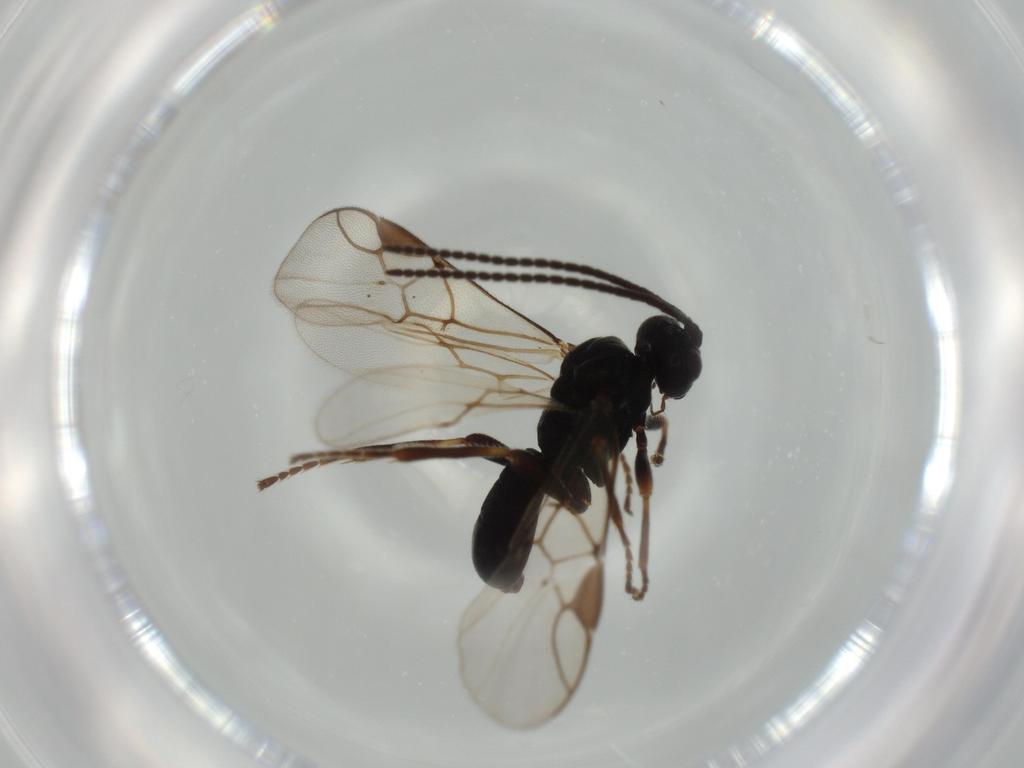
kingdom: Animalia
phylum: Arthropoda
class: Insecta
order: Hymenoptera
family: Braconidae
